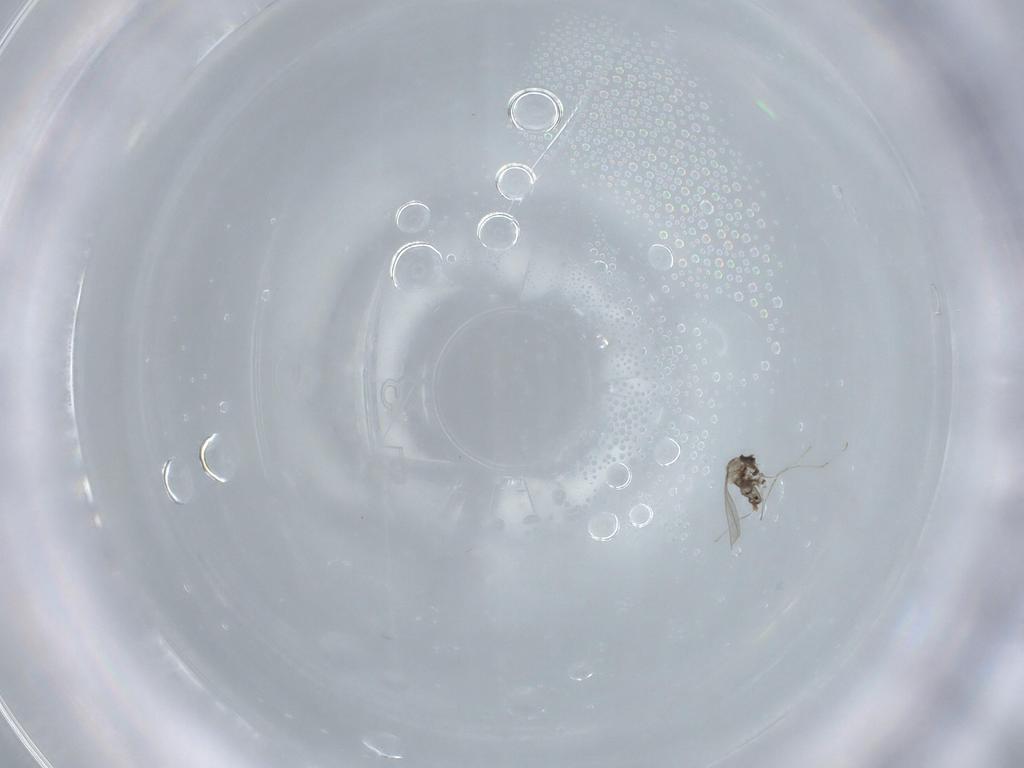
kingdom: Animalia
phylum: Arthropoda
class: Insecta
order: Diptera
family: Cecidomyiidae
